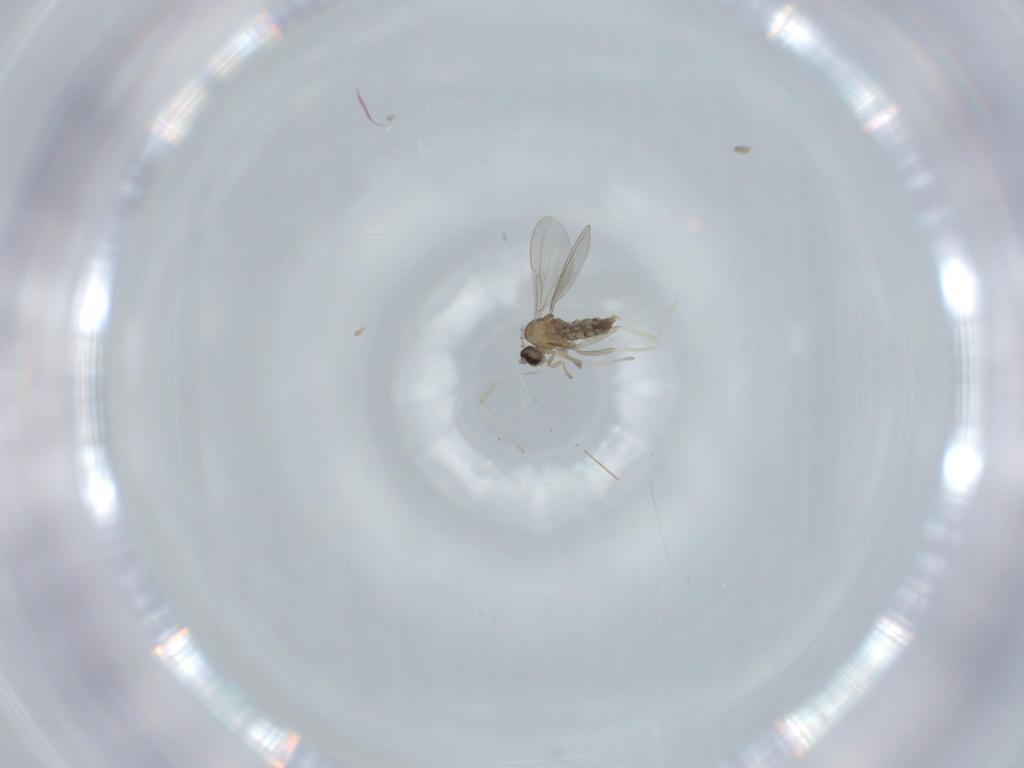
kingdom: Animalia
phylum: Arthropoda
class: Insecta
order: Diptera
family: Cecidomyiidae
